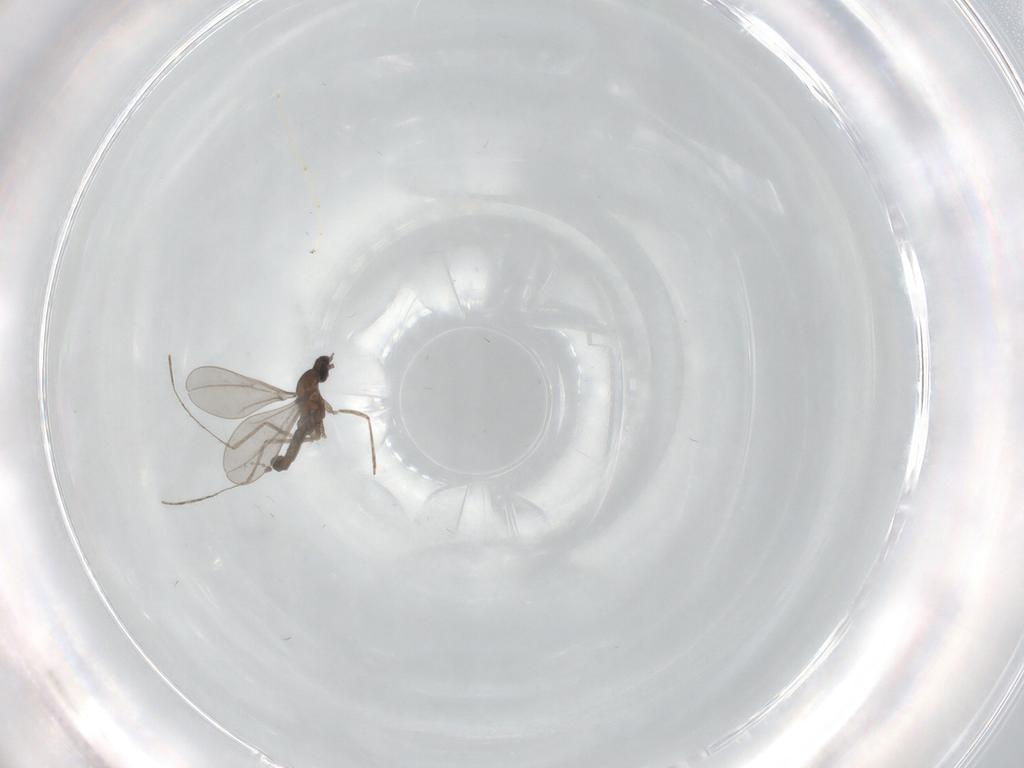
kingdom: Animalia
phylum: Arthropoda
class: Insecta
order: Diptera
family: Cecidomyiidae
